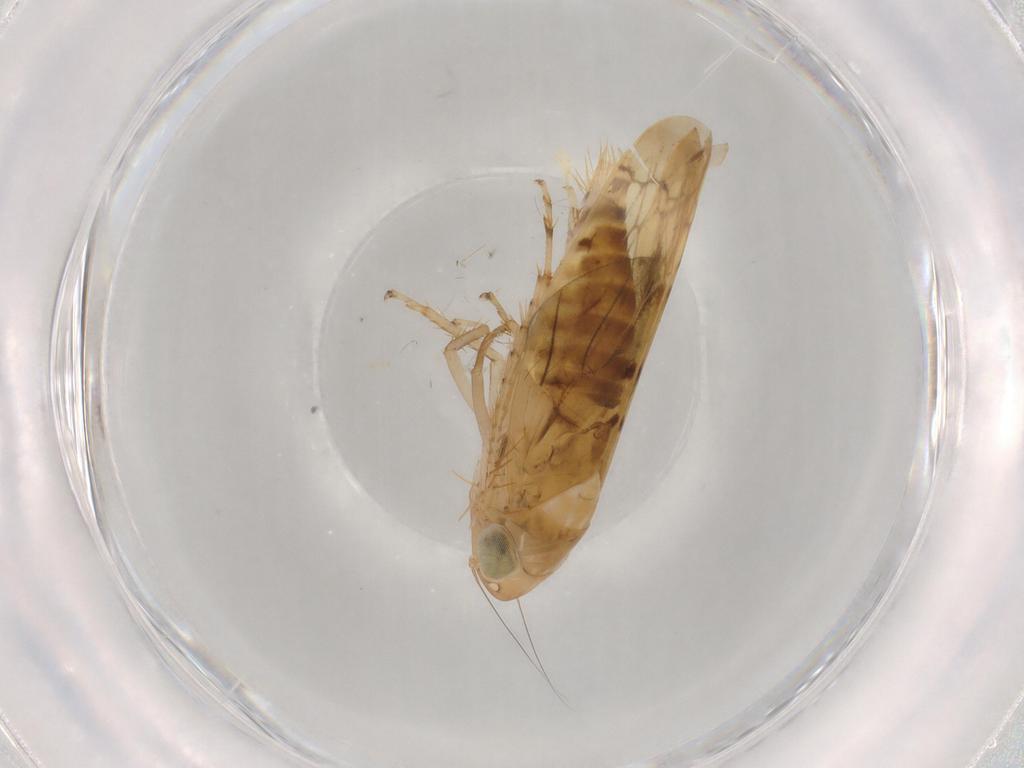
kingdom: Animalia
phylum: Arthropoda
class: Insecta
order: Hemiptera
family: Cicadellidae
